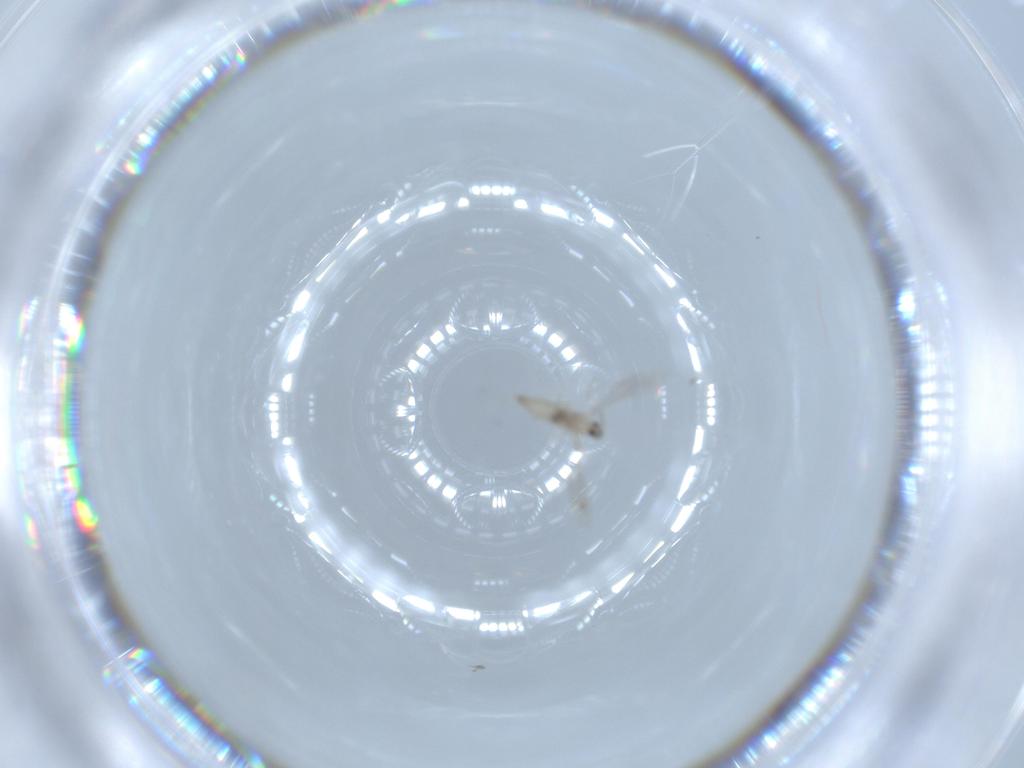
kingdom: Animalia
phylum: Arthropoda
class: Insecta
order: Diptera
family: Cecidomyiidae
